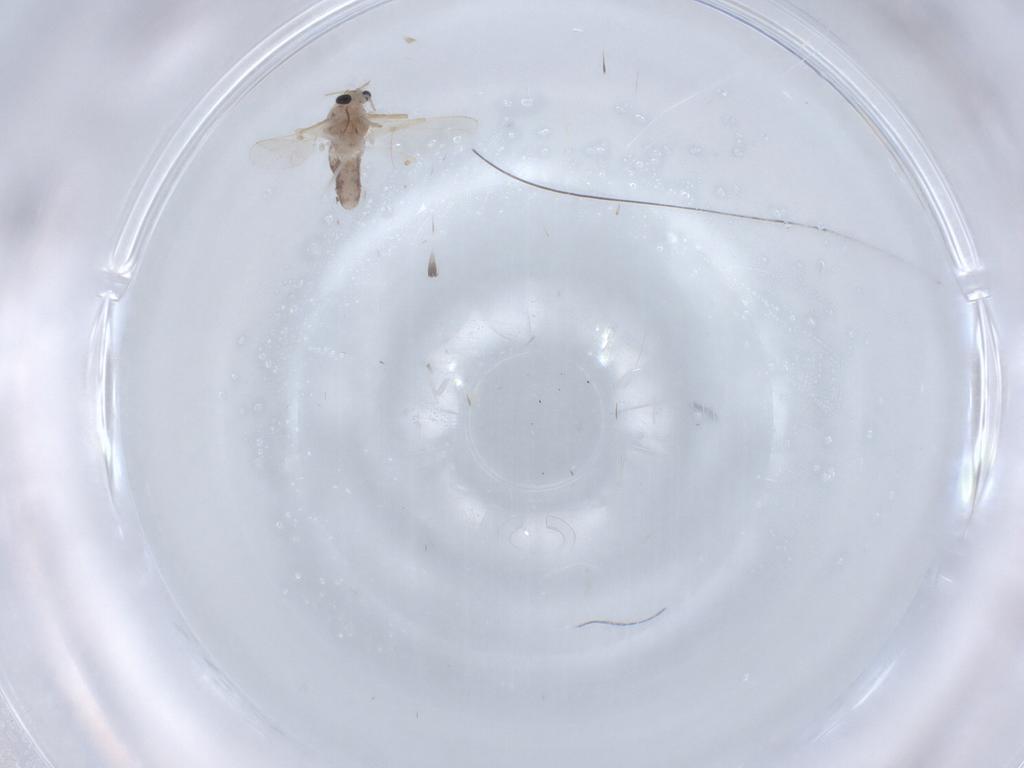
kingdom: Animalia
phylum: Arthropoda
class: Insecta
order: Diptera
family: Chironomidae
